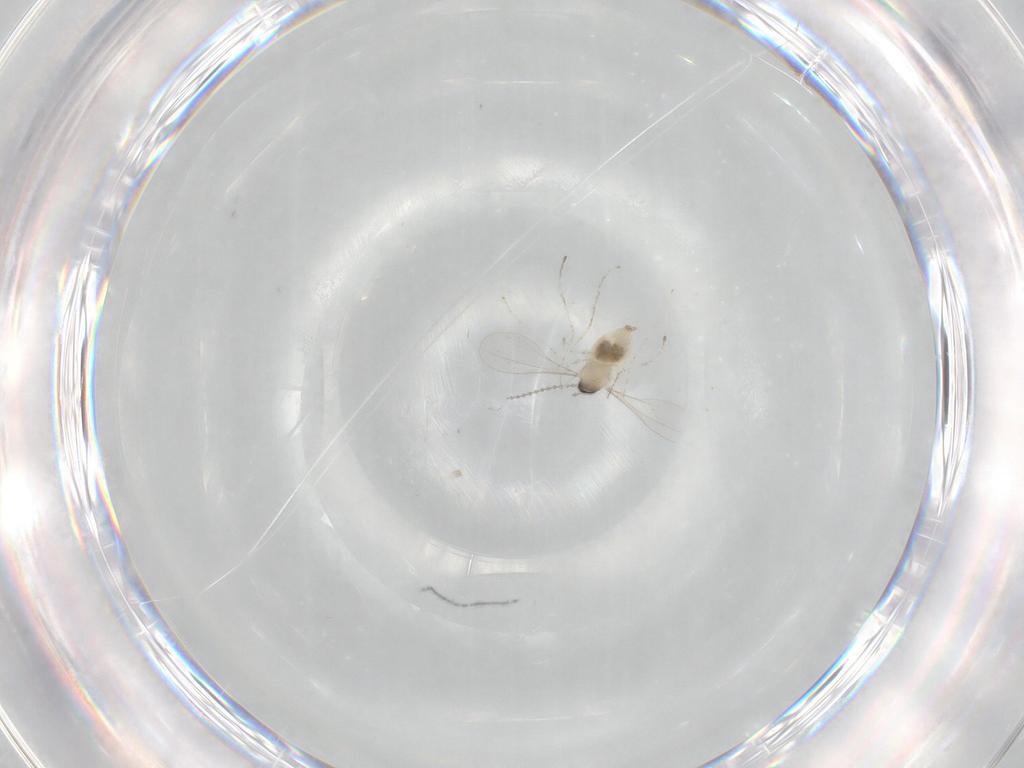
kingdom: Animalia
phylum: Arthropoda
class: Insecta
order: Diptera
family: Cecidomyiidae
